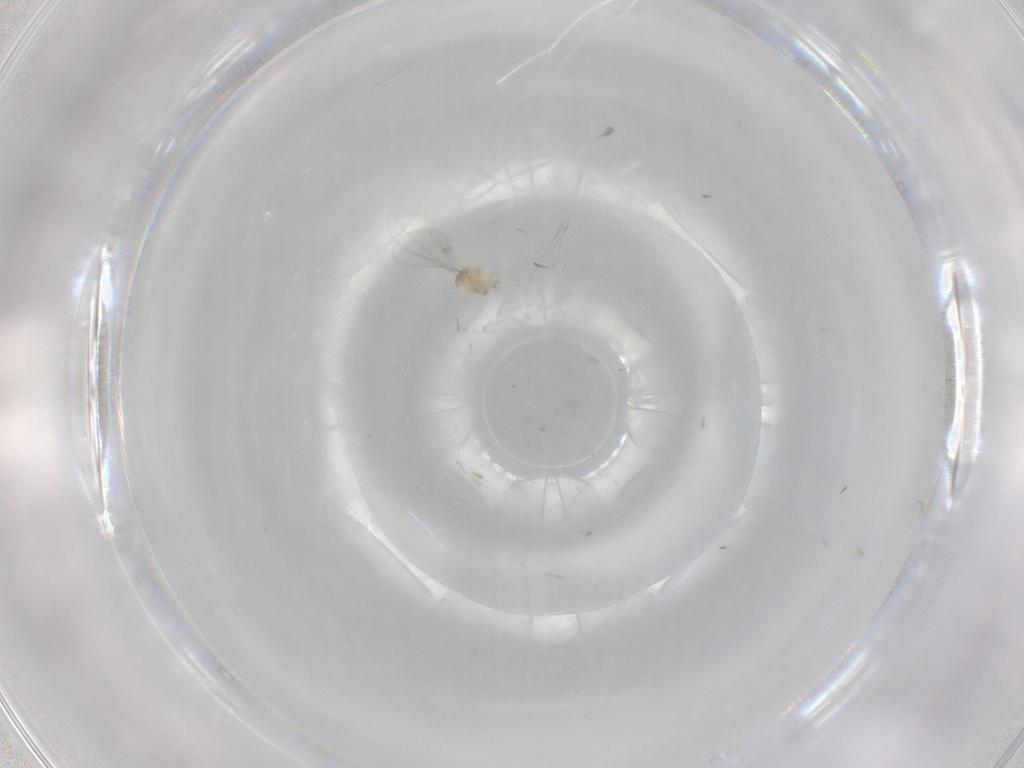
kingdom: Animalia
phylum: Arthropoda
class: Insecta
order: Diptera
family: Cecidomyiidae
